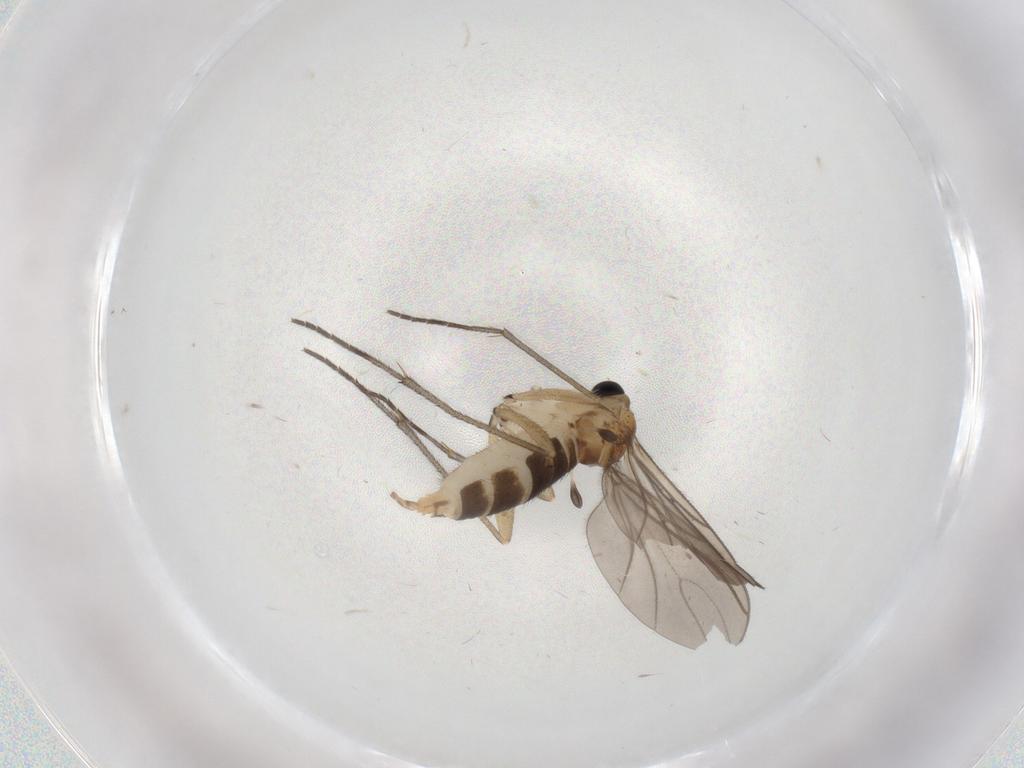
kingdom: Animalia
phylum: Arthropoda
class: Insecta
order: Diptera
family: Sciaridae
